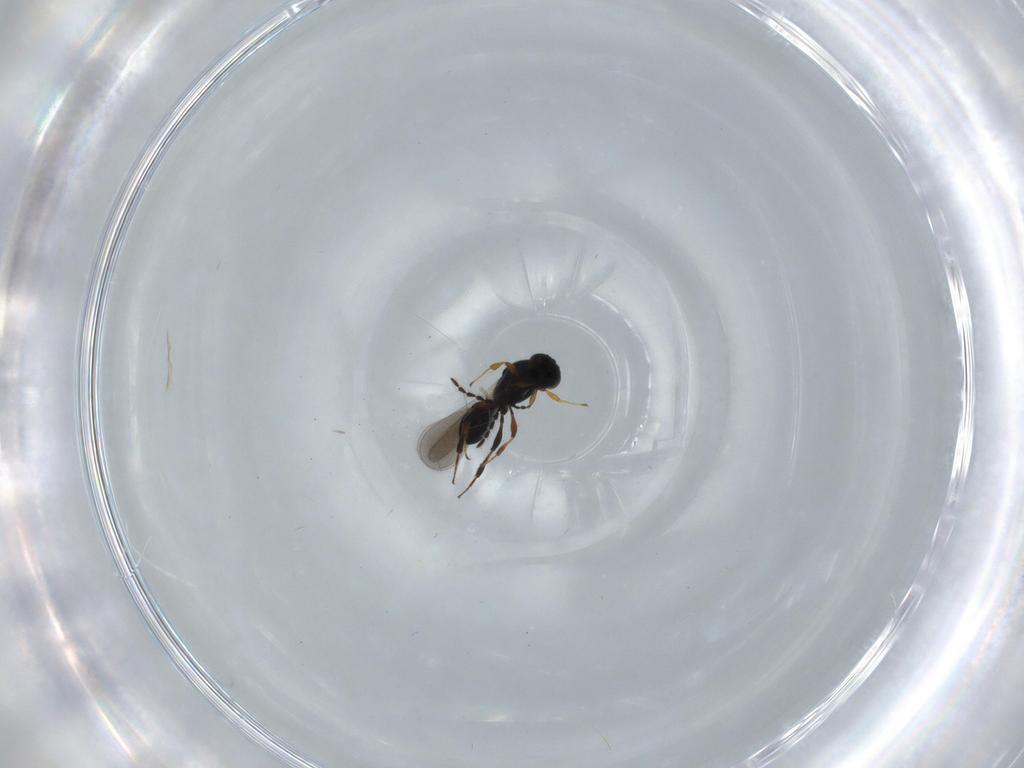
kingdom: Animalia
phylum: Arthropoda
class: Insecta
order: Hymenoptera
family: Platygastridae
